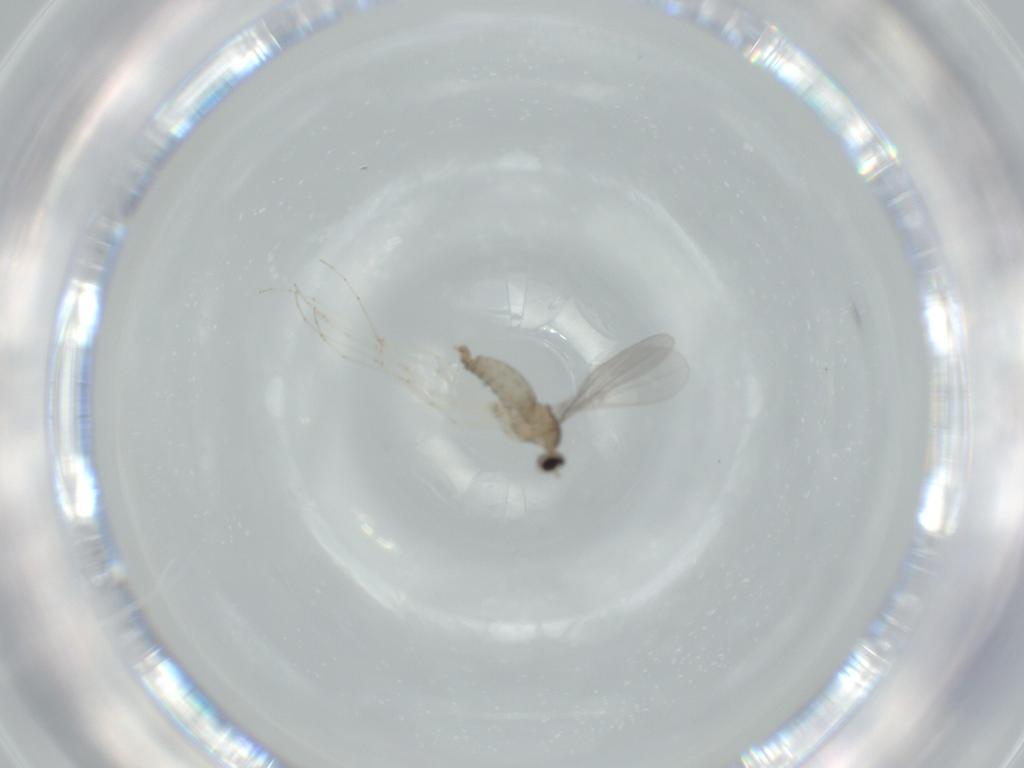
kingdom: Animalia
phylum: Arthropoda
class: Insecta
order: Diptera
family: Cecidomyiidae
